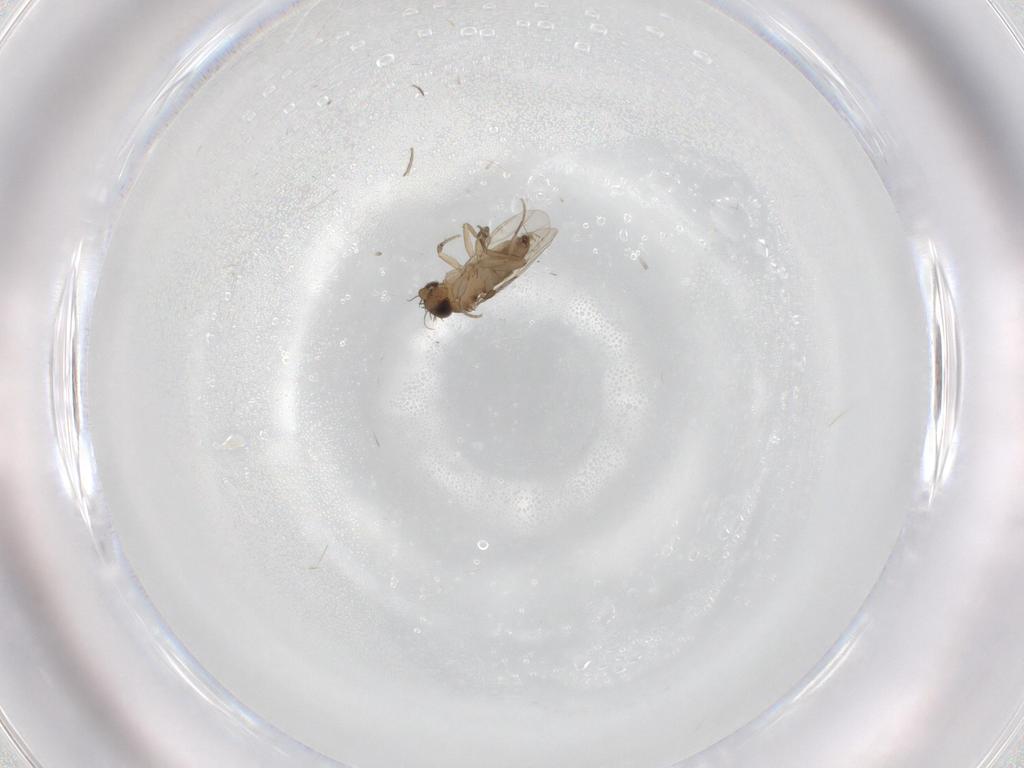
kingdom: Animalia
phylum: Arthropoda
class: Insecta
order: Diptera
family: Phoridae
